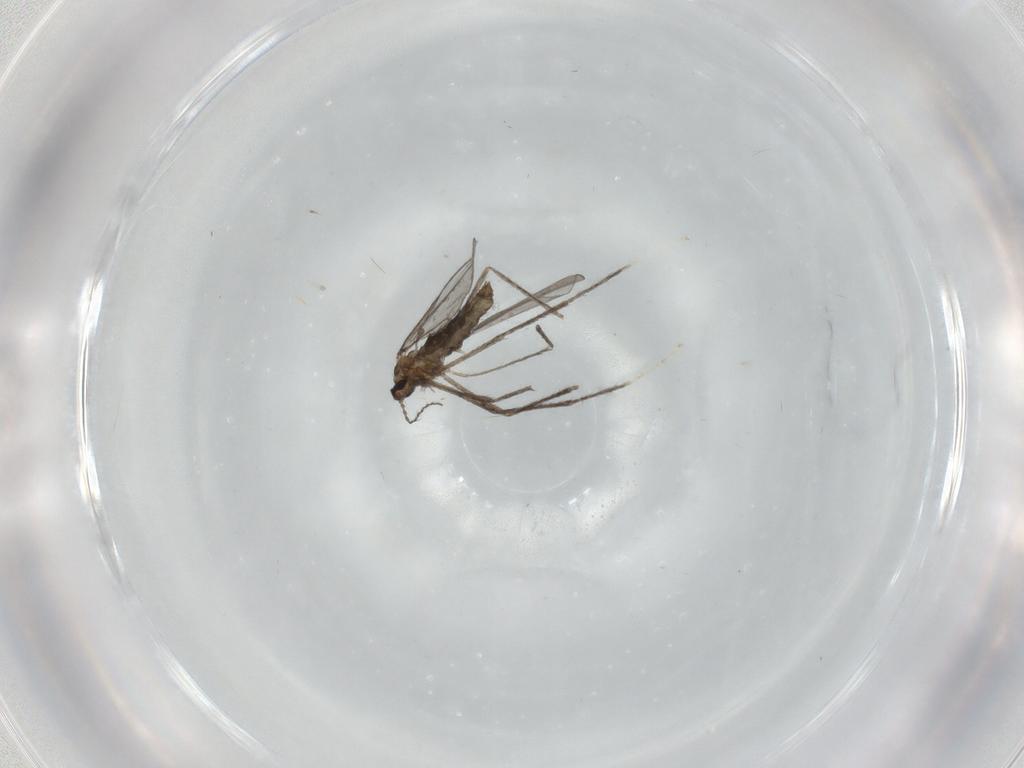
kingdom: Animalia
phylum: Arthropoda
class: Insecta
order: Diptera
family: Cecidomyiidae
